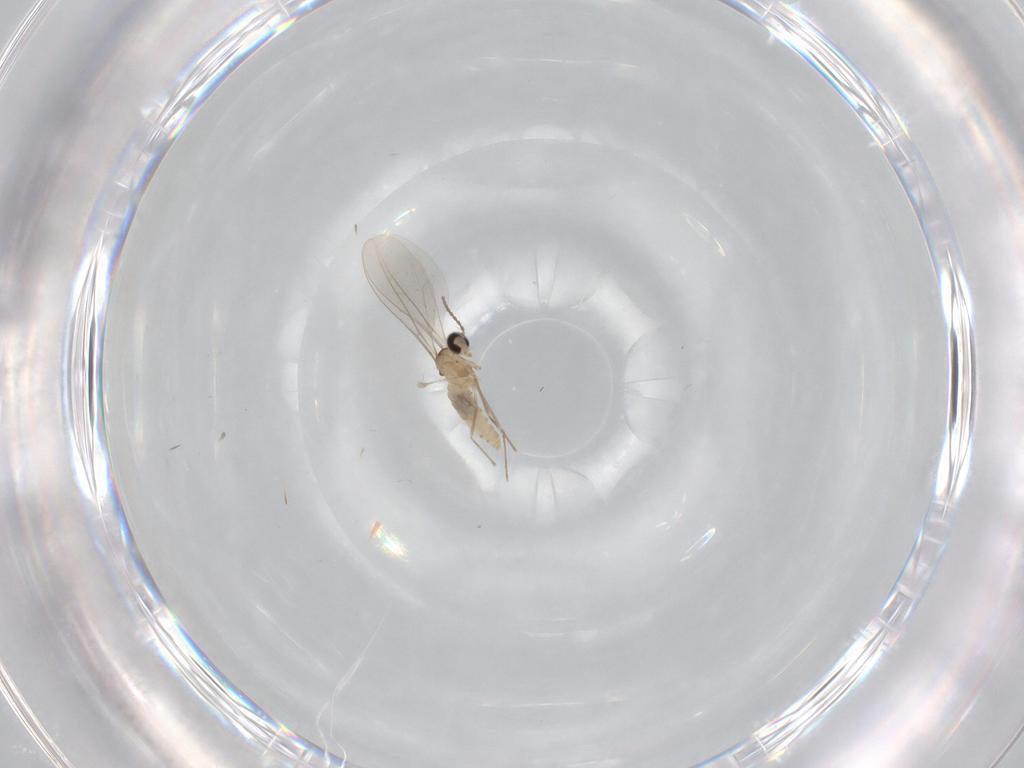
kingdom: Animalia
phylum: Arthropoda
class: Insecta
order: Diptera
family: Cecidomyiidae
